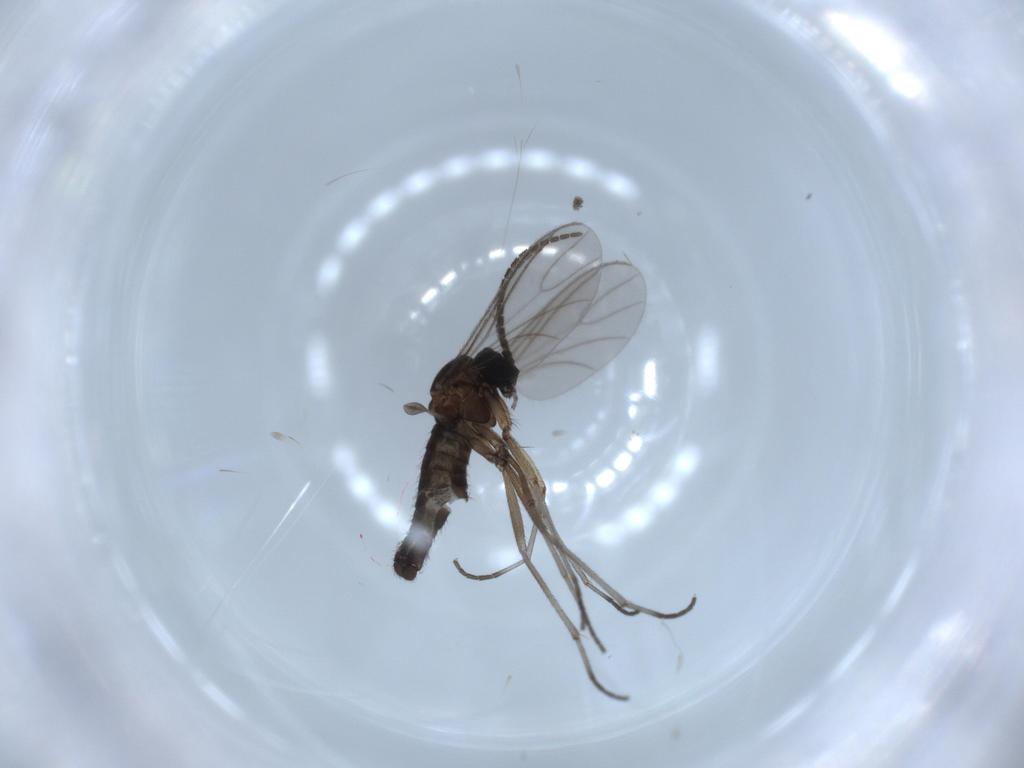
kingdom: Animalia
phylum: Arthropoda
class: Insecta
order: Diptera
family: Sciaridae
